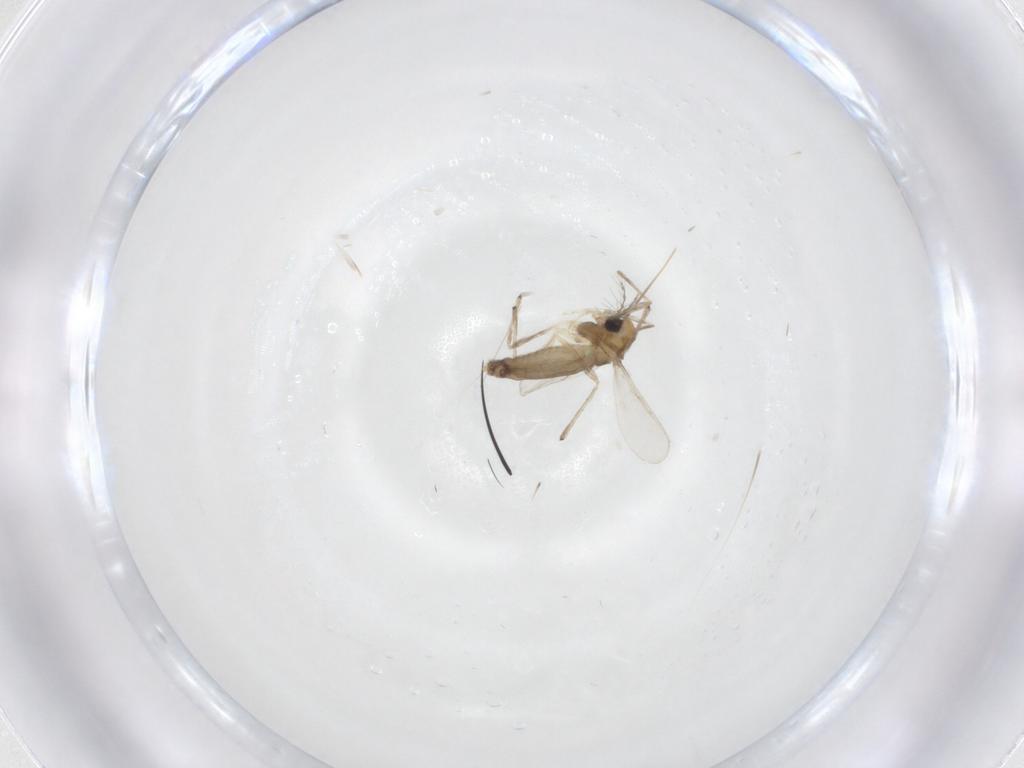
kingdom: Animalia
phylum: Arthropoda
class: Insecta
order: Diptera
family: Chironomidae
